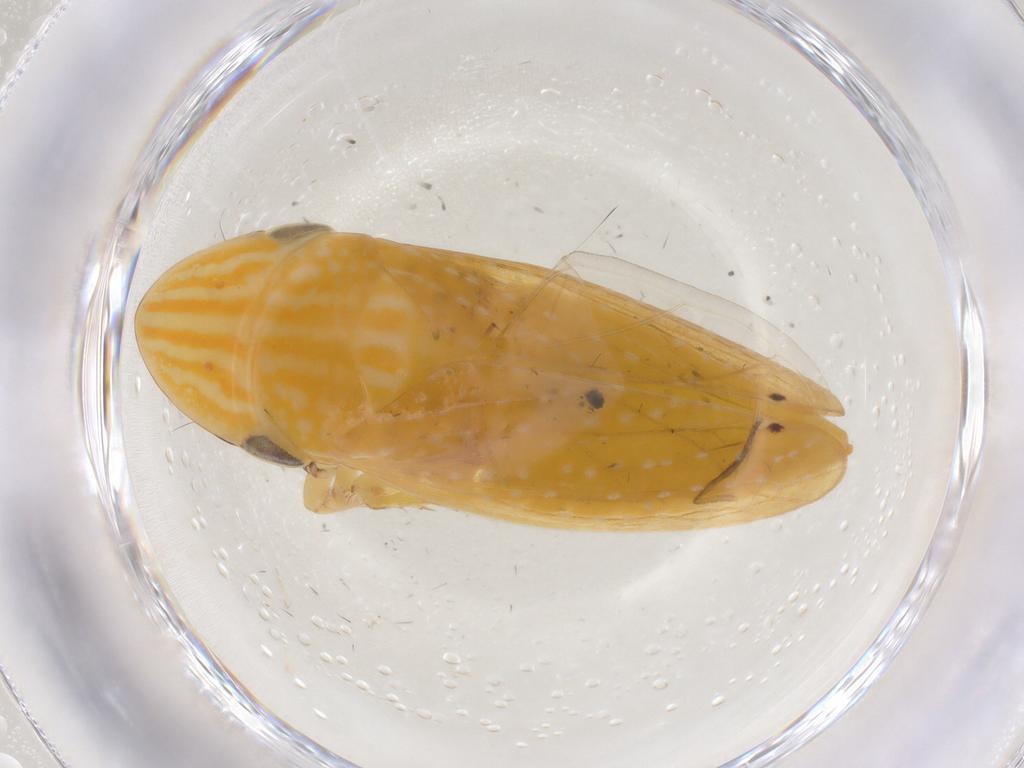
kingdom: Animalia
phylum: Arthropoda
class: Insecta
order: Hemiptera
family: Cicadellidae
